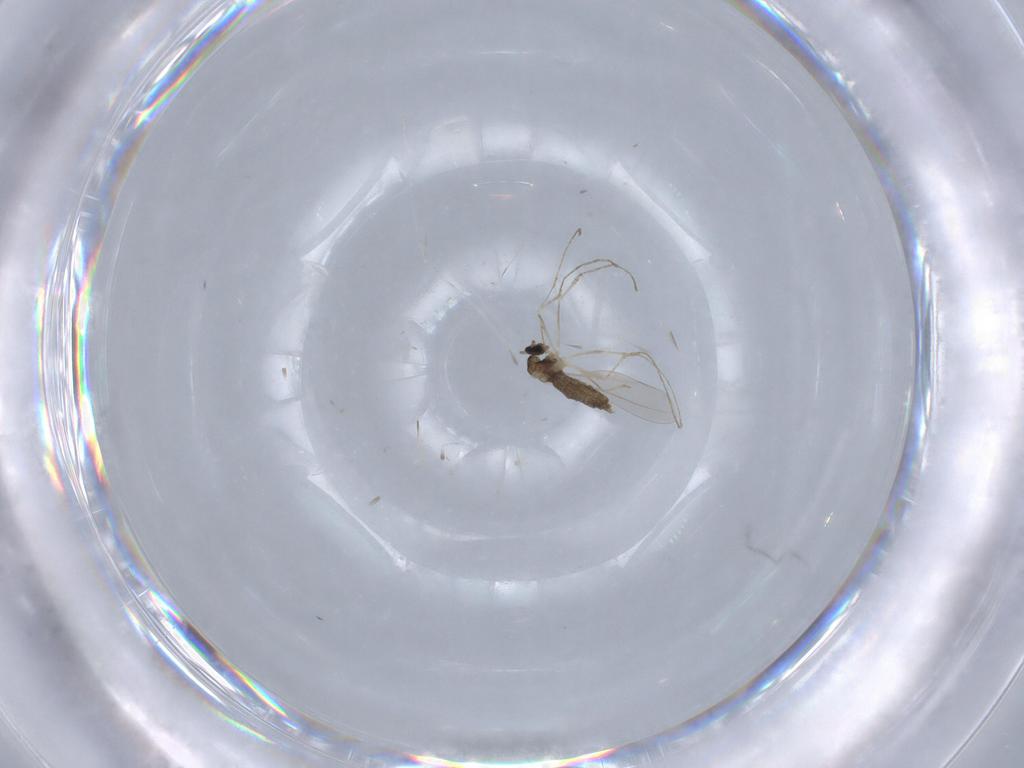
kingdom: Animalia
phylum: Arthropoda
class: Insecta
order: Diptera
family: Cecidomyiidae
